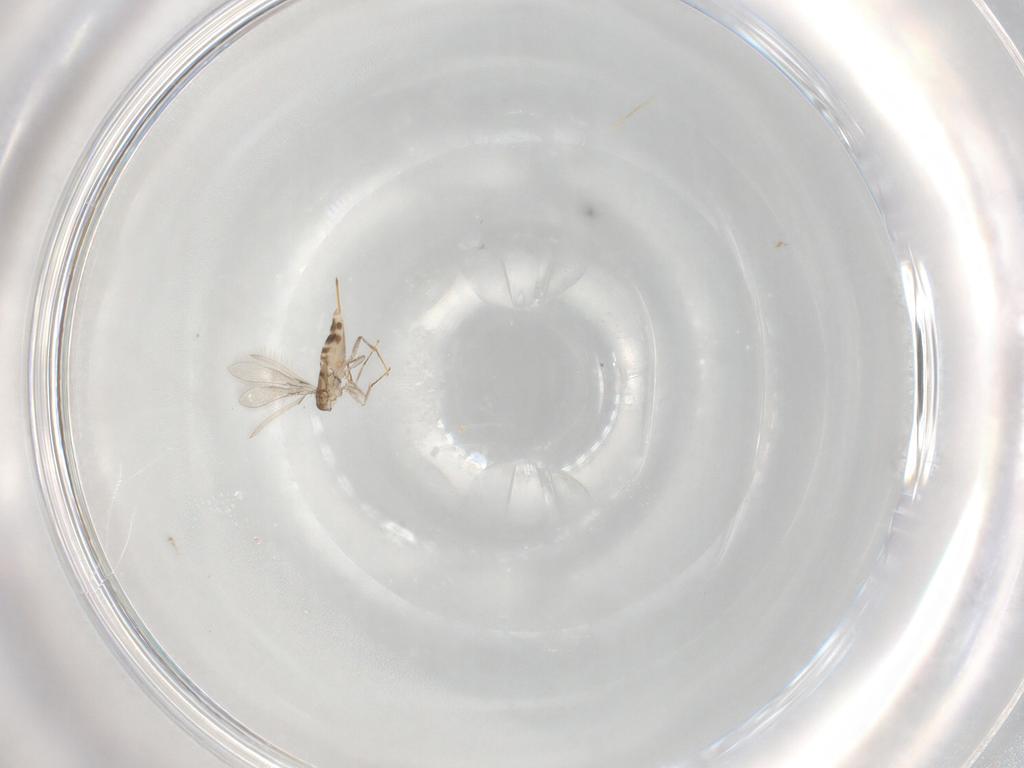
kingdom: Animalia
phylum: Arthropoda
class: Insecta
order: Hymenoptera
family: Mymaridae
